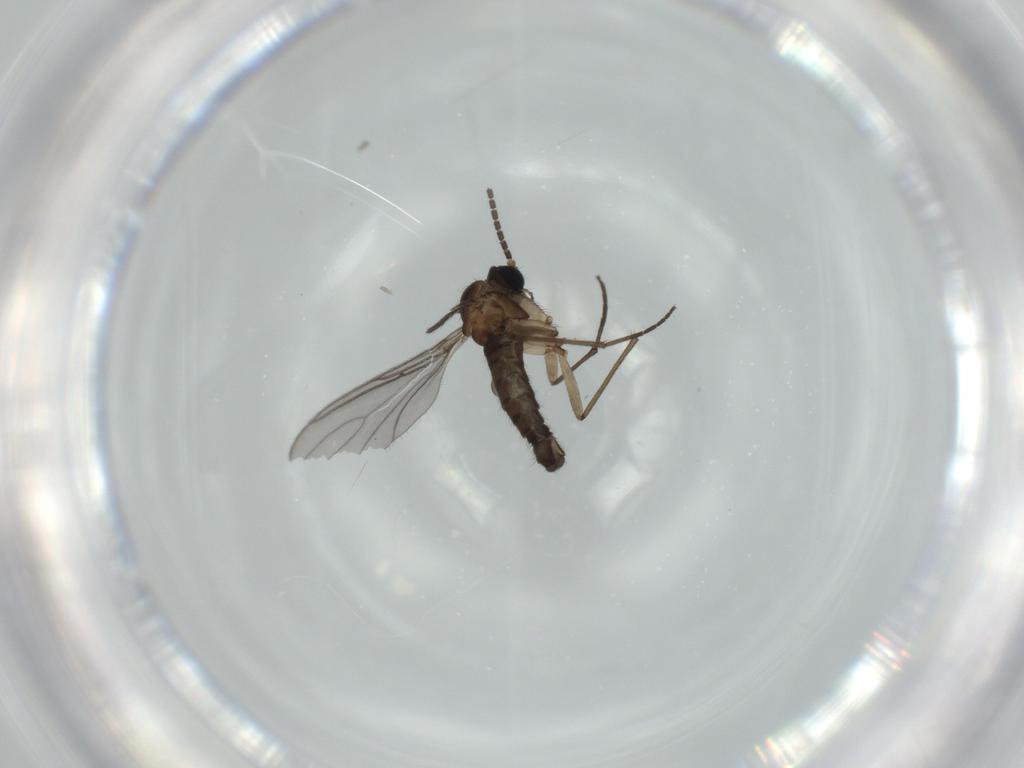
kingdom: Animalia
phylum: Arthropoda
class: Insecta
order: Diptera
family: Sciaridae
